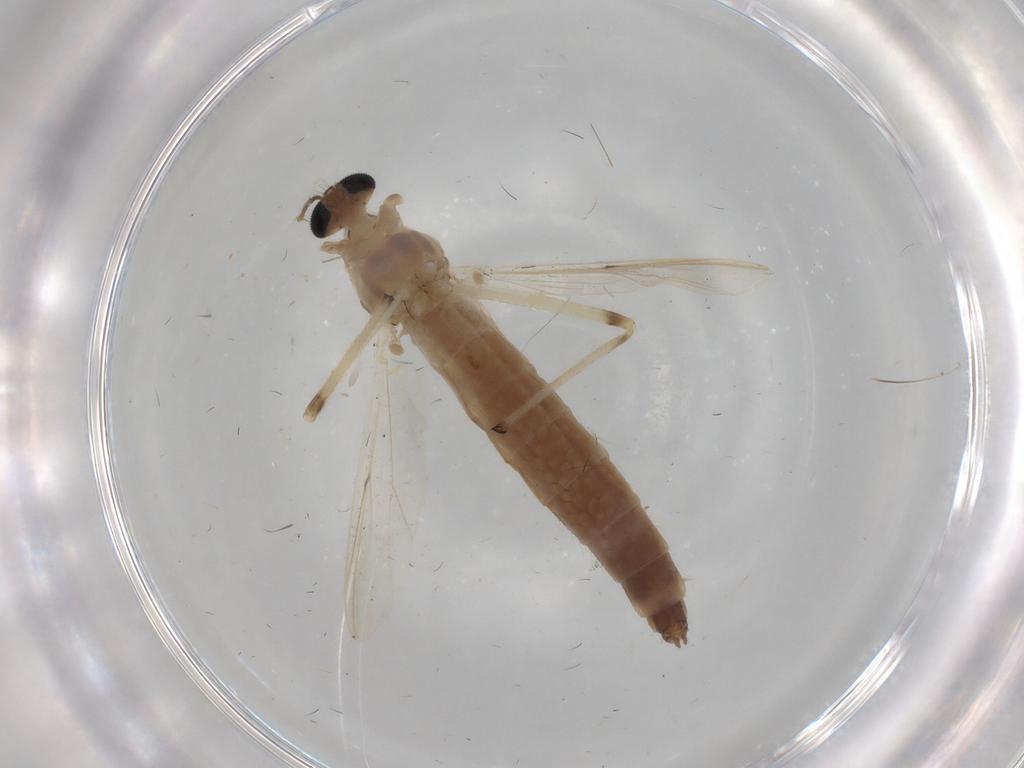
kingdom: Animalia
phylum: Arthropoda
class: Insecta
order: Diptera
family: Chironomidae
